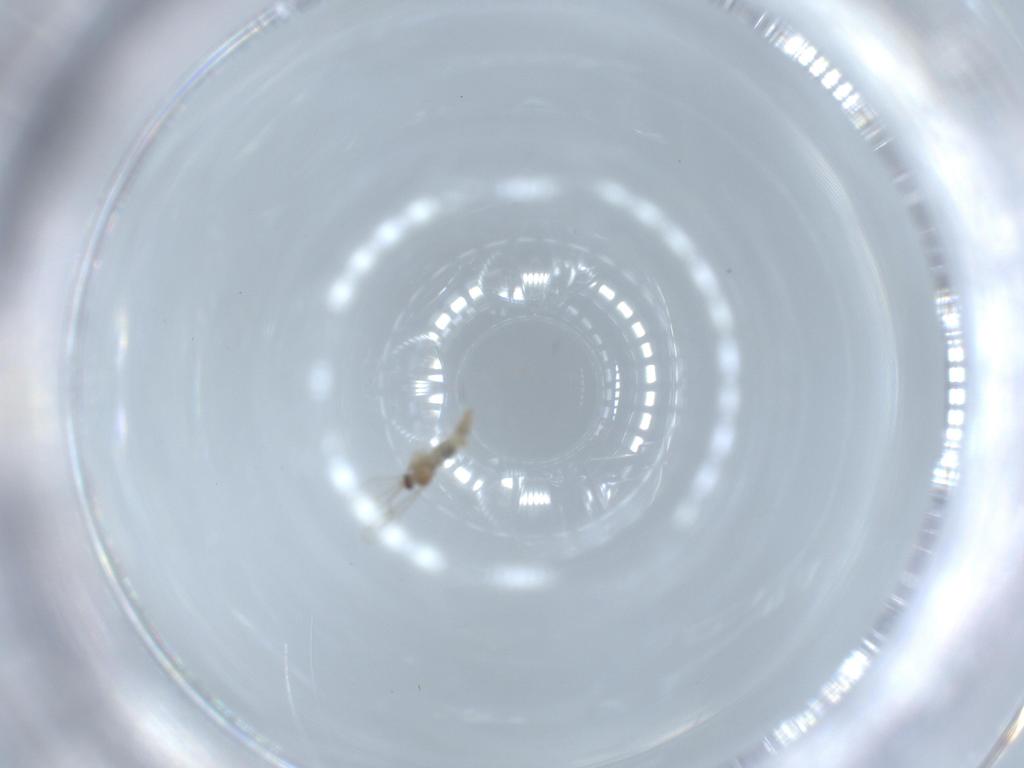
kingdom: Animalia
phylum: Arthropoda
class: Insecta
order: Diptera
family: Cecidomyiidae
